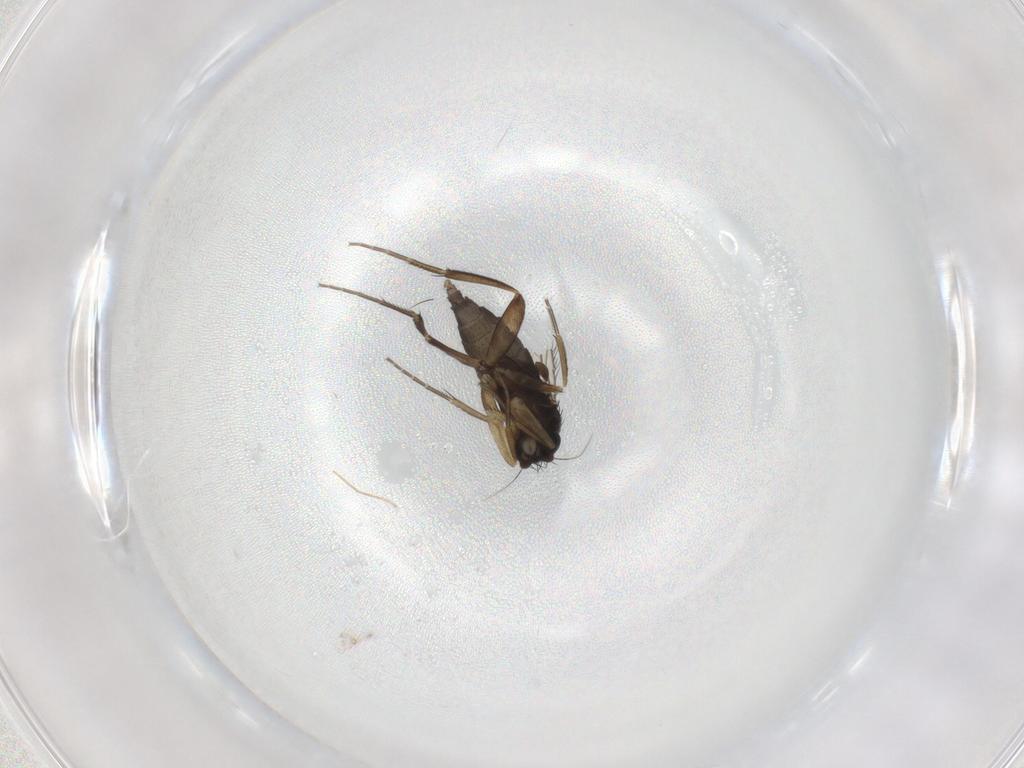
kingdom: Animalia
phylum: Arthropoda
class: Insecta
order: Diptera
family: Phoridae
